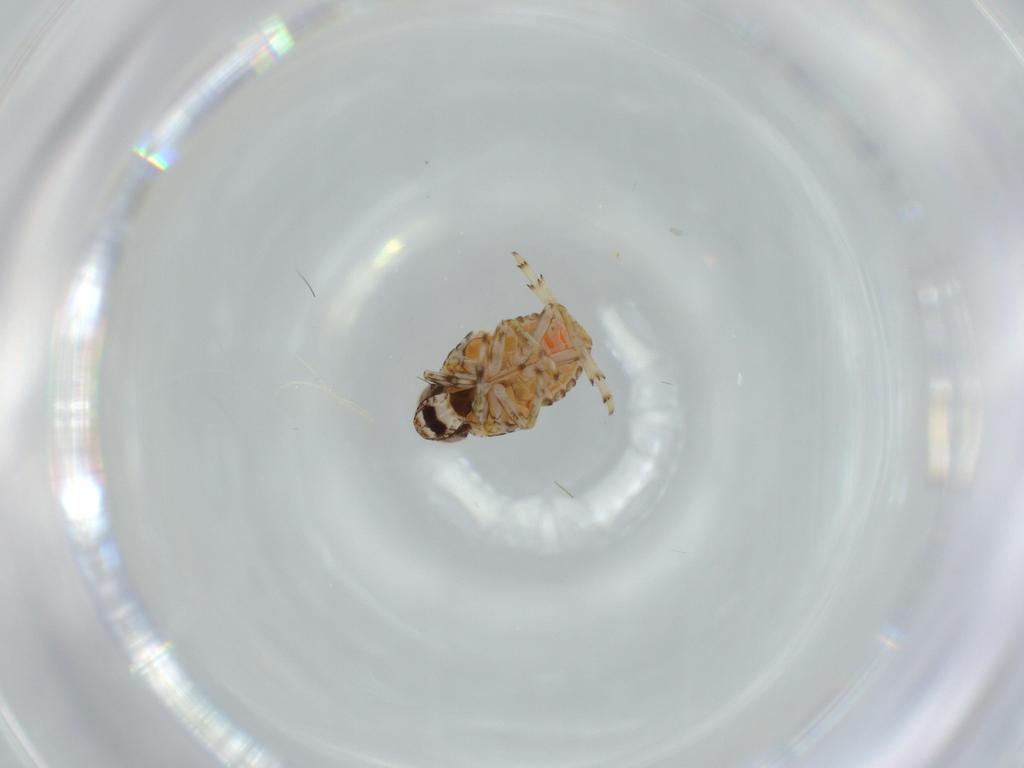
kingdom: Animalia
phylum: Arthropoda
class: Insecta
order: Hemiptera
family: Issidae
